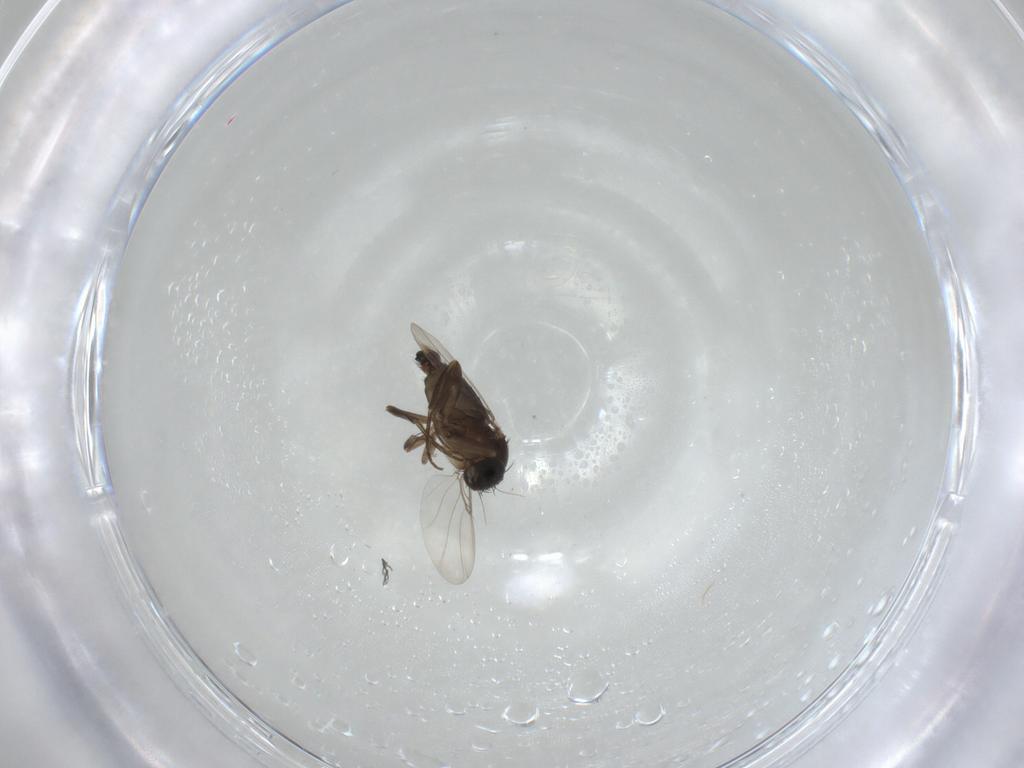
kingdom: Animalia
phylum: Arthropoda
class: Insecta
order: Diptera
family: Phoridae
